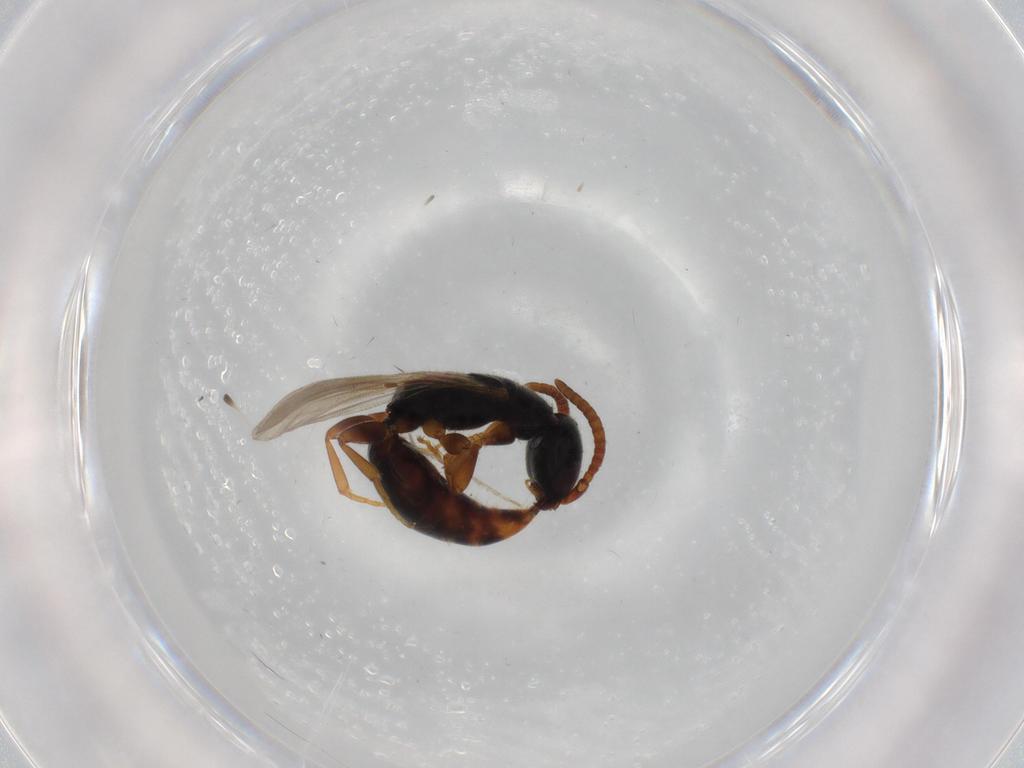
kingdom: Animalia
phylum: Arthropoda
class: Insecta
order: Hymenoptera
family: Bethylidae
